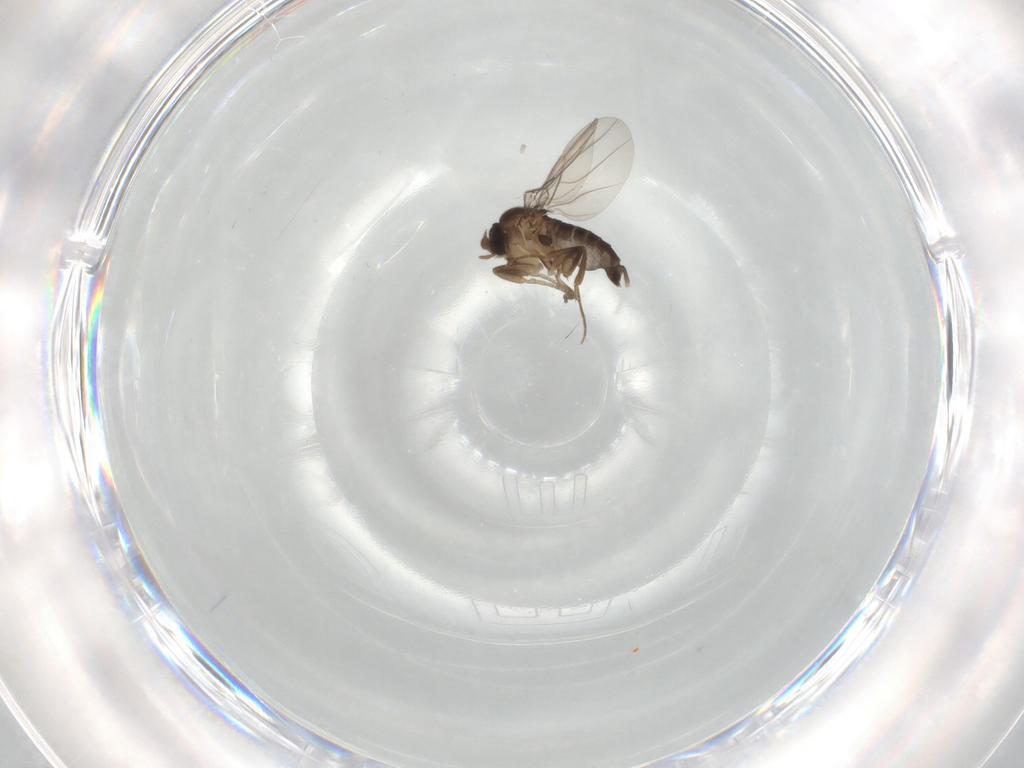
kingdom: Animalia
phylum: Arthropoda
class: Insecta
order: Diptera
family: Phoridae
